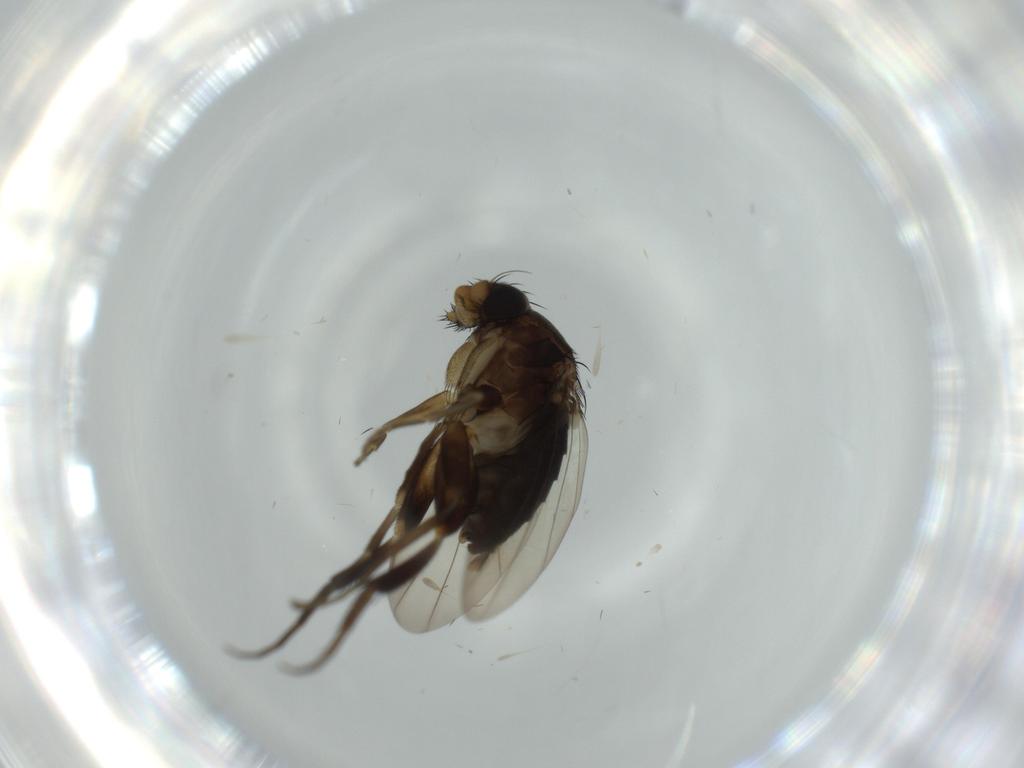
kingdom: Animalia
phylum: Arthropoda
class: Insecta
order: Diptera
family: Phoridae
